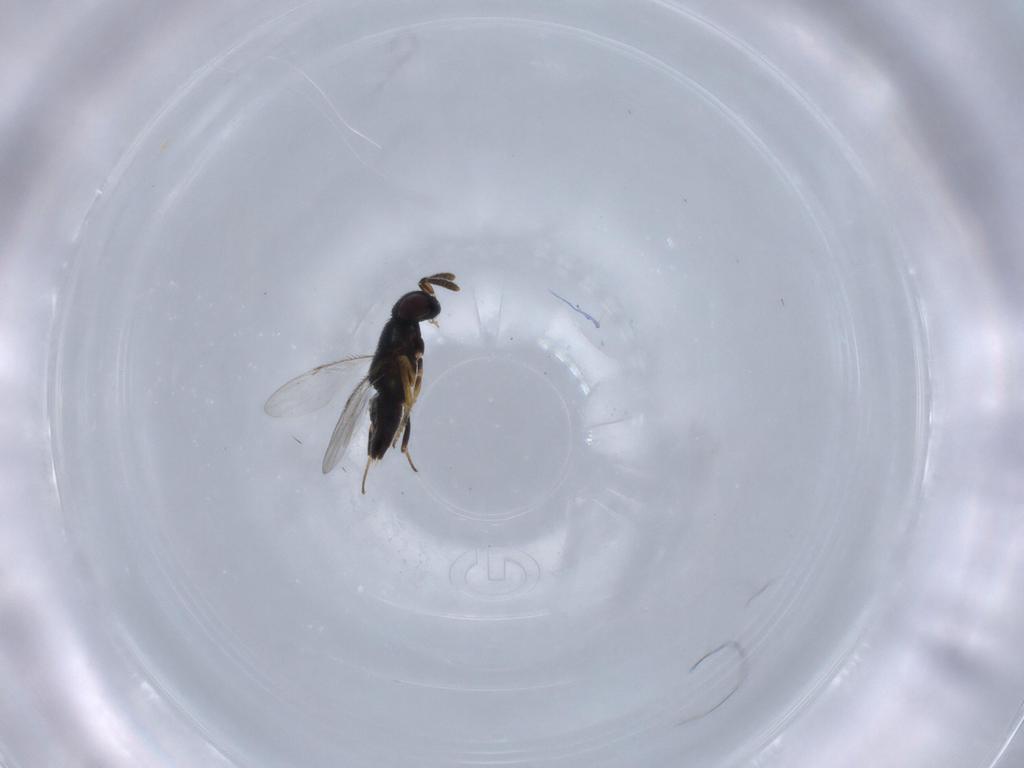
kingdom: Animalia
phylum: Arthropoda
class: Insecta
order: Hymenoptera
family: Encyrtidae
